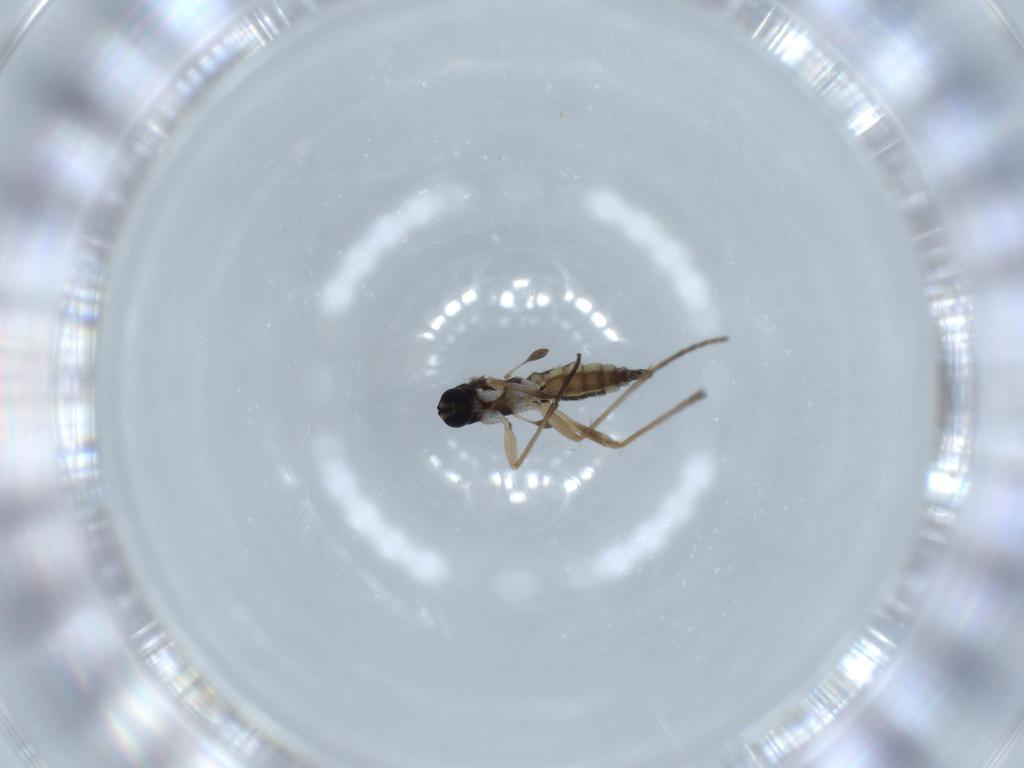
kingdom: Animalia
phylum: Arthropoda
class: Insecta
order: Diptera
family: Sciaridae
